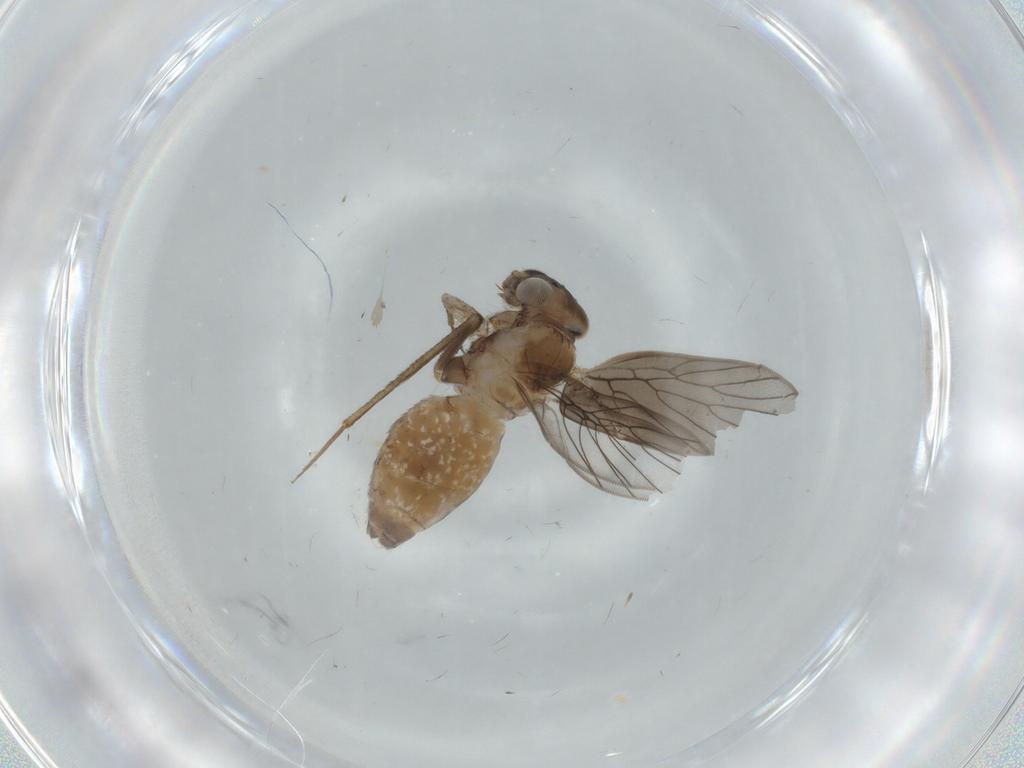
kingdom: Animalia
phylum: Arthropoda
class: Insecta
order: Psocodea
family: Lepidopsocidae
